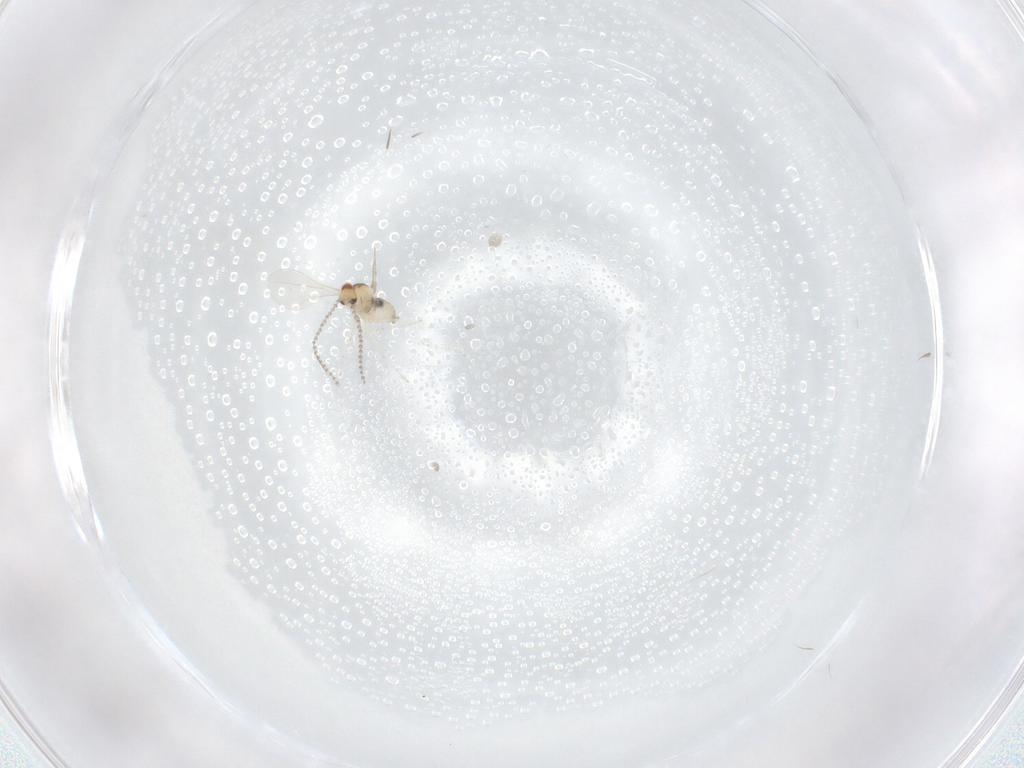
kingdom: Animalia
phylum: Arthropoda
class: Insecta
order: Diptera
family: Cecidomyiidae
